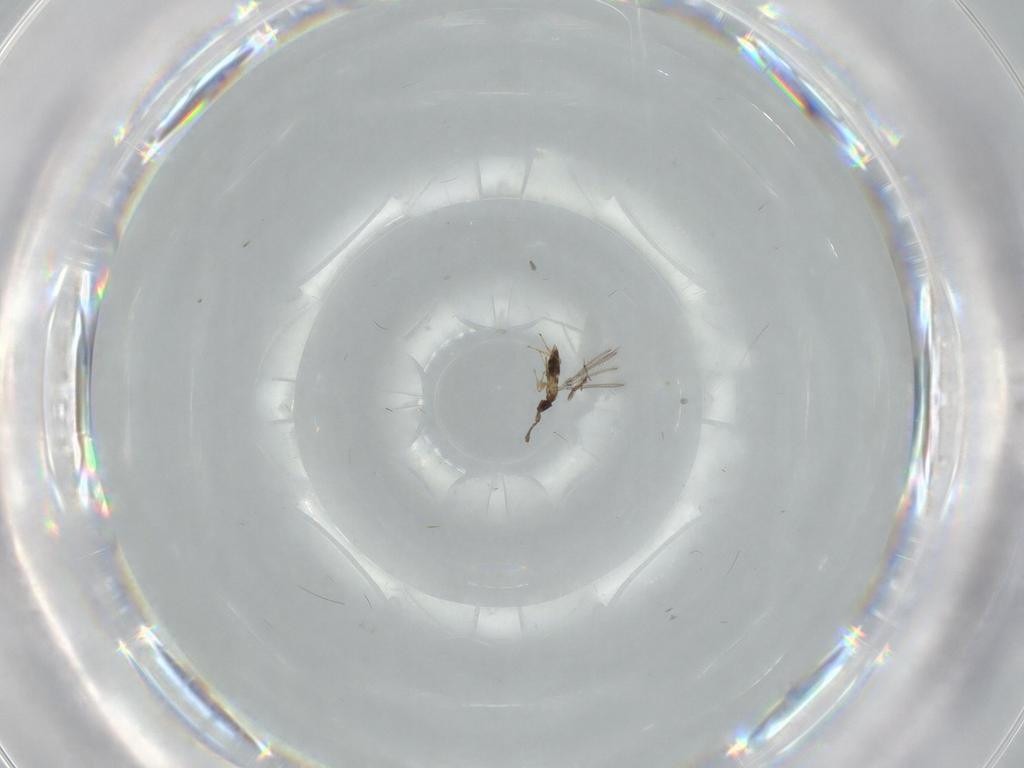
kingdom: Animalia
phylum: Arthropoda
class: Insecta
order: Hymenoptera
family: Mymaridae
